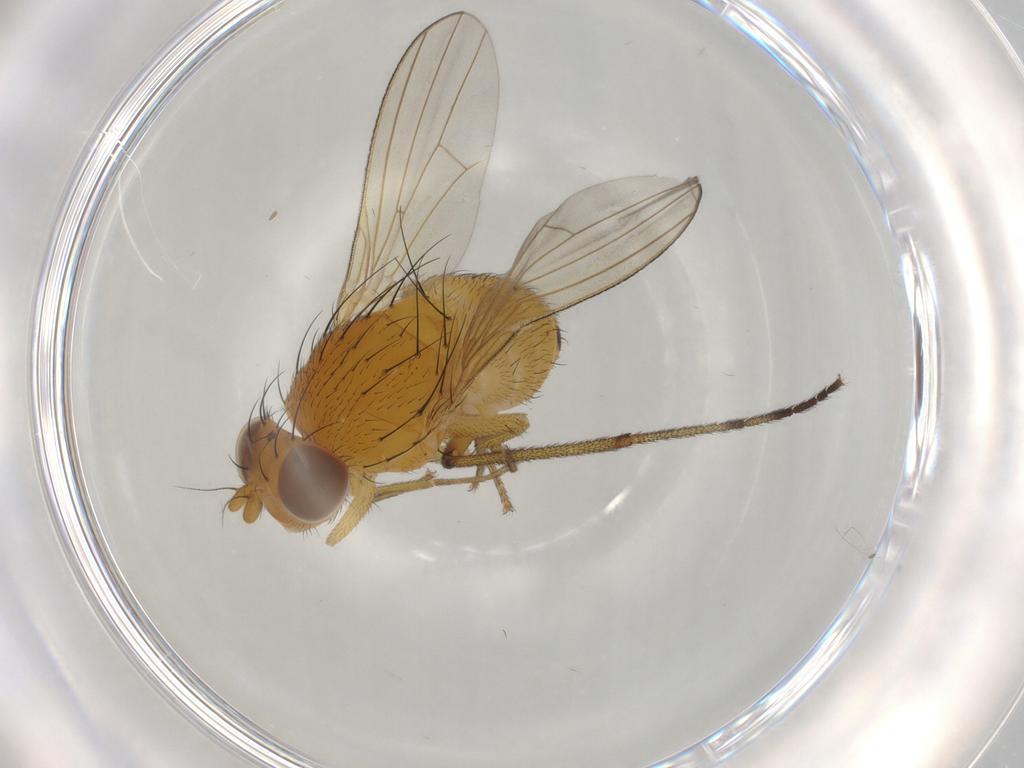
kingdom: Animalia
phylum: Arthropoda
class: Insecta
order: Diptera
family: Lauxaniidae
